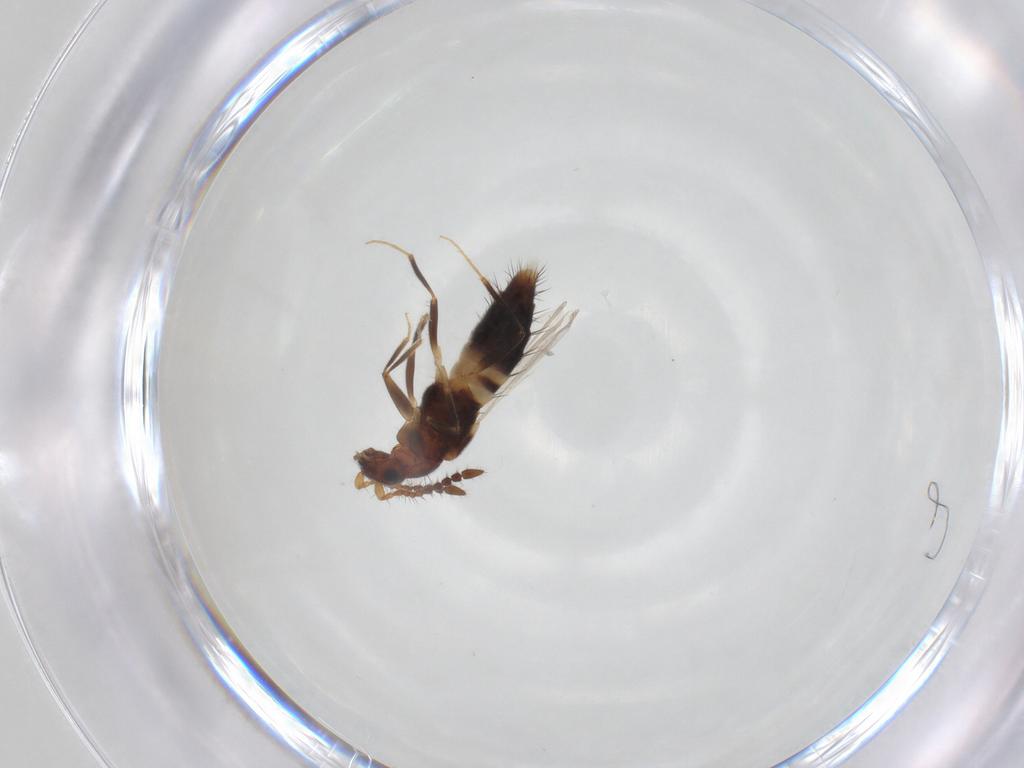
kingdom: Animalia
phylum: Arthropoda
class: Insecta
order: Coleoptera
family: Staphylinidae
